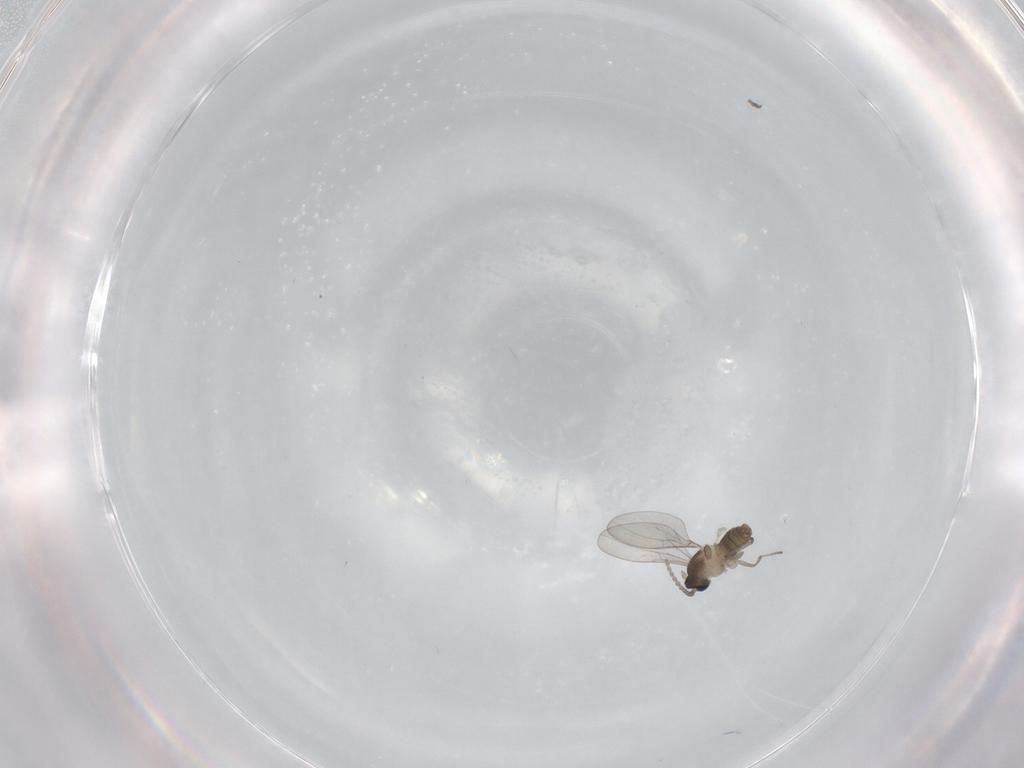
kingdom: Animalia
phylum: Arthropoda
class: Insecta
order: Diptera
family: Cecidomyiidae
